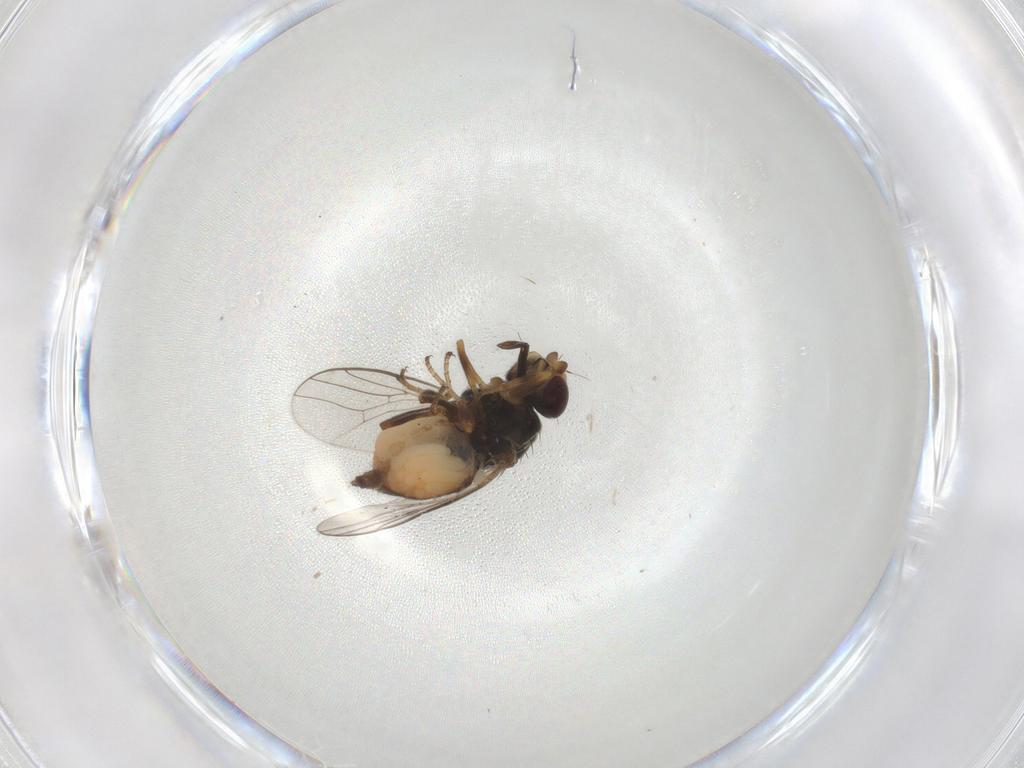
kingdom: Animalia
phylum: Arthropoda
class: Insecta
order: Diptera
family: Chloropidae
